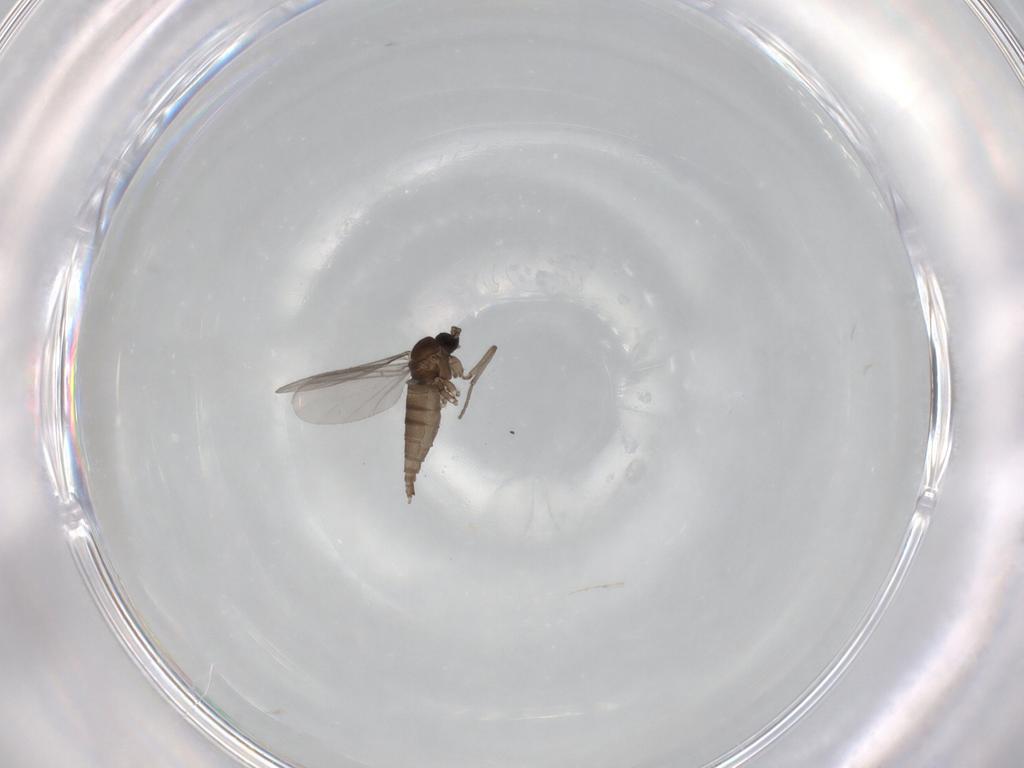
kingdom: Animalia
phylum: Arthropoda
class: Insecta
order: Diptera
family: Sciaridae
